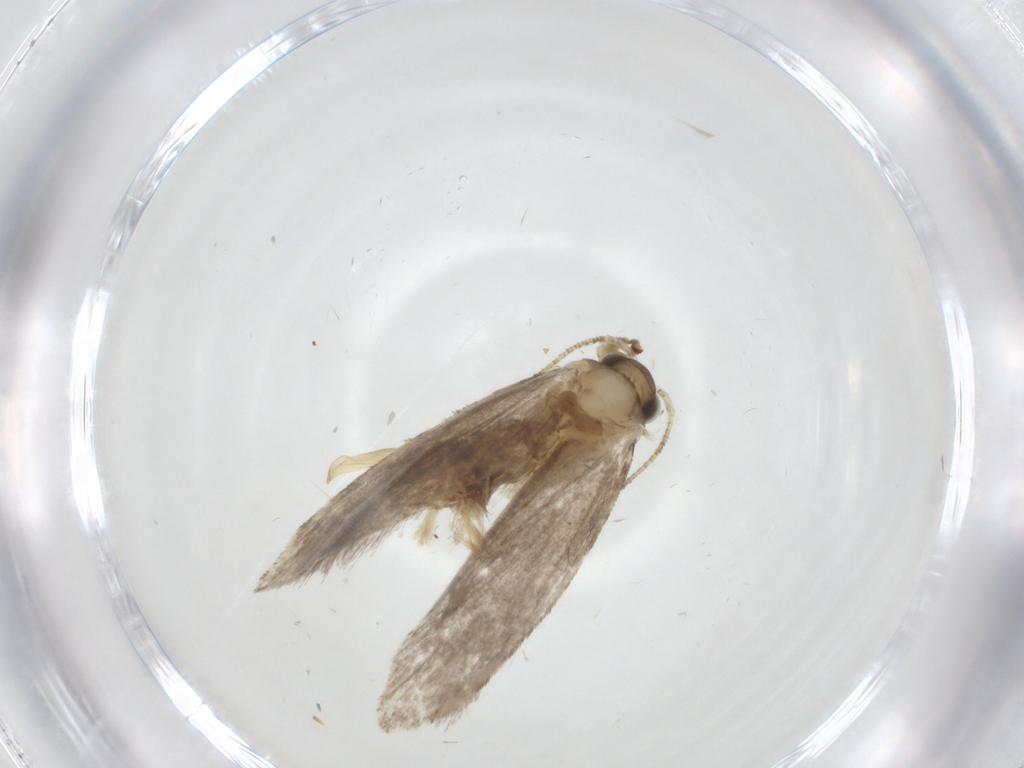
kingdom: Animalia
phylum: Arthropoda
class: Insecta
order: Lepidoptera
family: Tineidae
